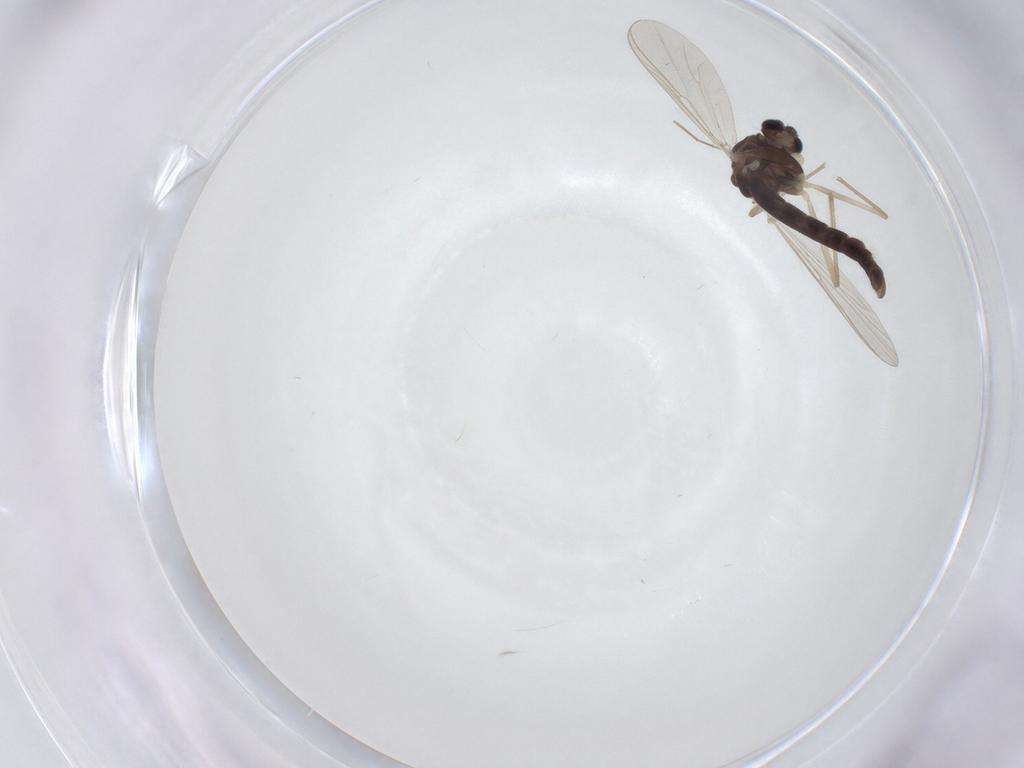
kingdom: Animalia
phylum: Arthropoda
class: Insecta
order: Diptera
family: Chironomidae
